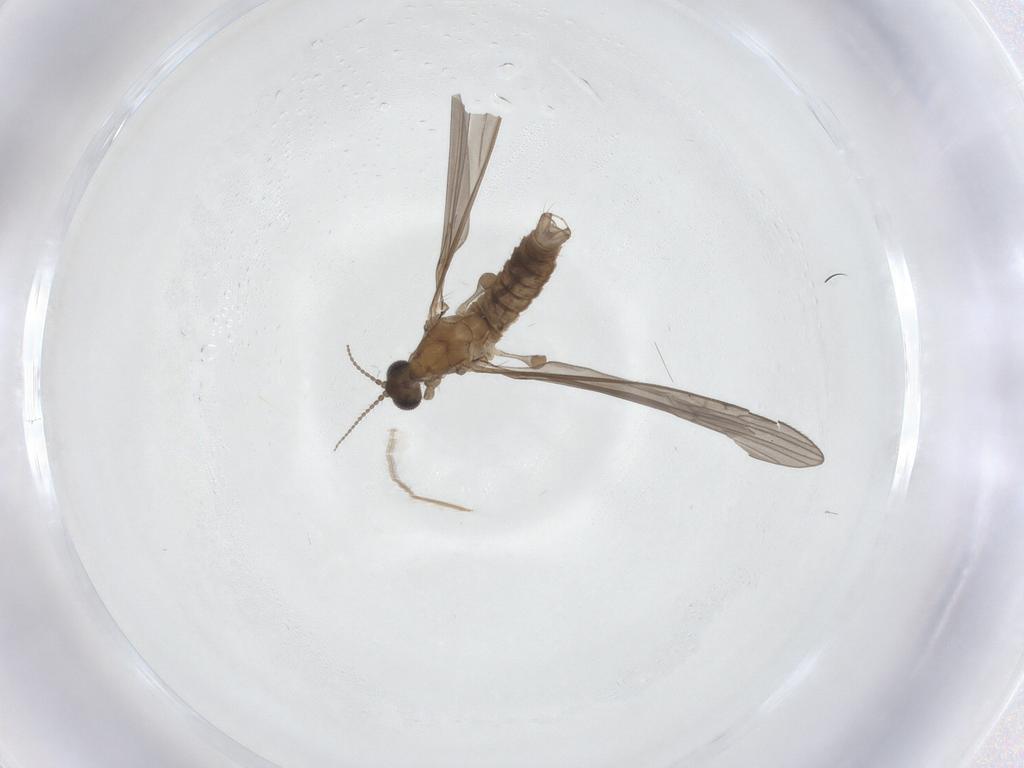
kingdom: Animalia
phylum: Arthropoda
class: Insecta
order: Diptera
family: Limoniidae
